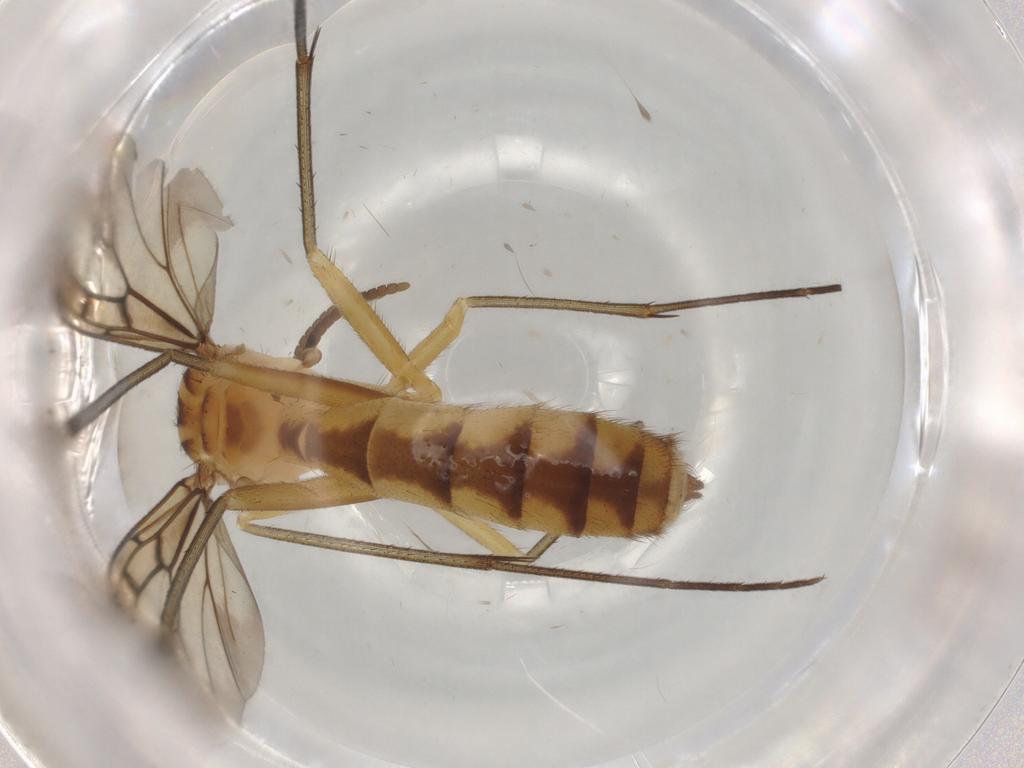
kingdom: Animalia
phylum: Arthropoda
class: Insecta
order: Diptera
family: Mycetophilidae
